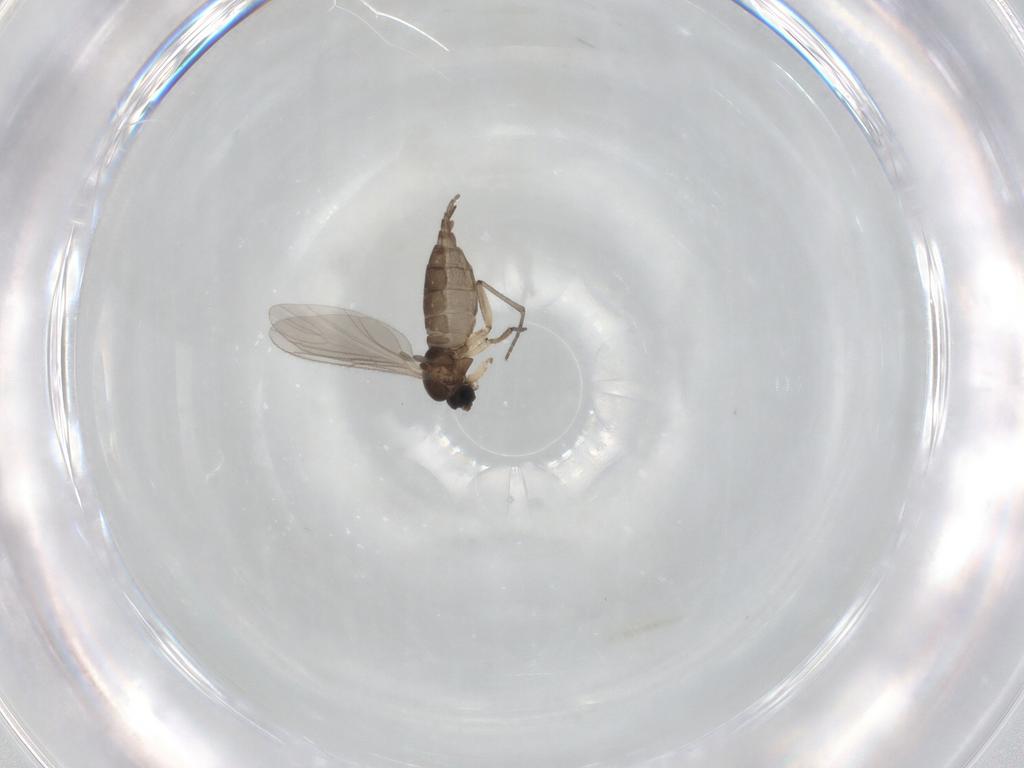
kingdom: Animalia
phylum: Arthropoda
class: Insecta
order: Diptera
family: Sciaridae
